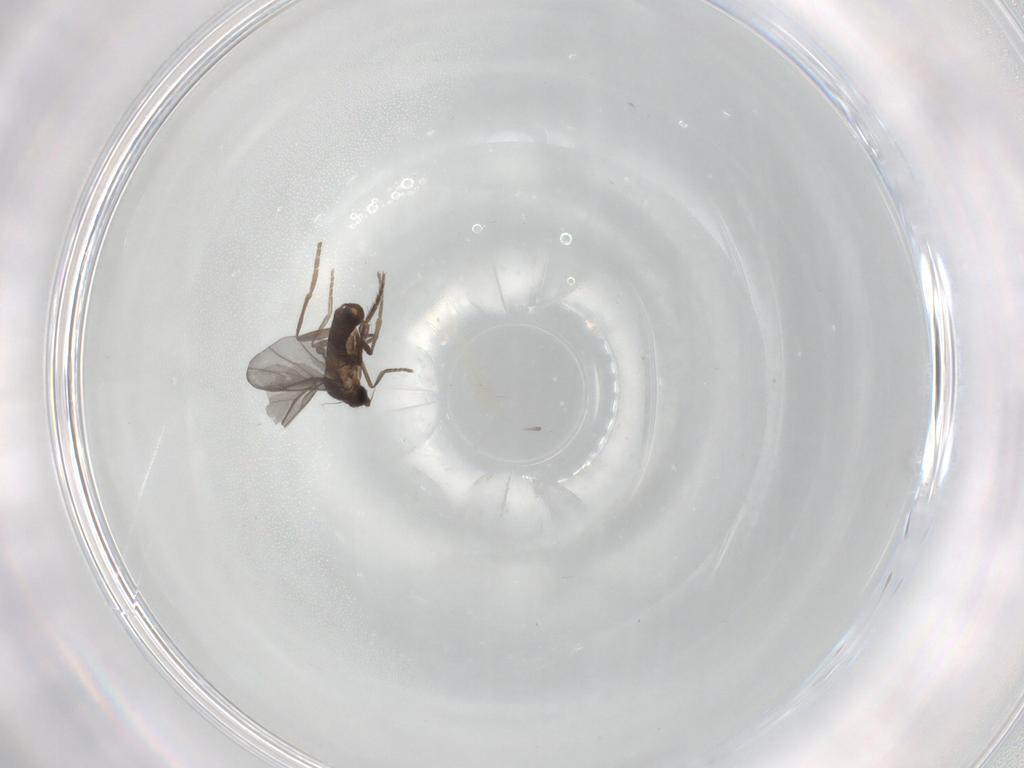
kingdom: Animalia
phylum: Arthropoda
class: Insecta
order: Diptera
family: Phoridae
